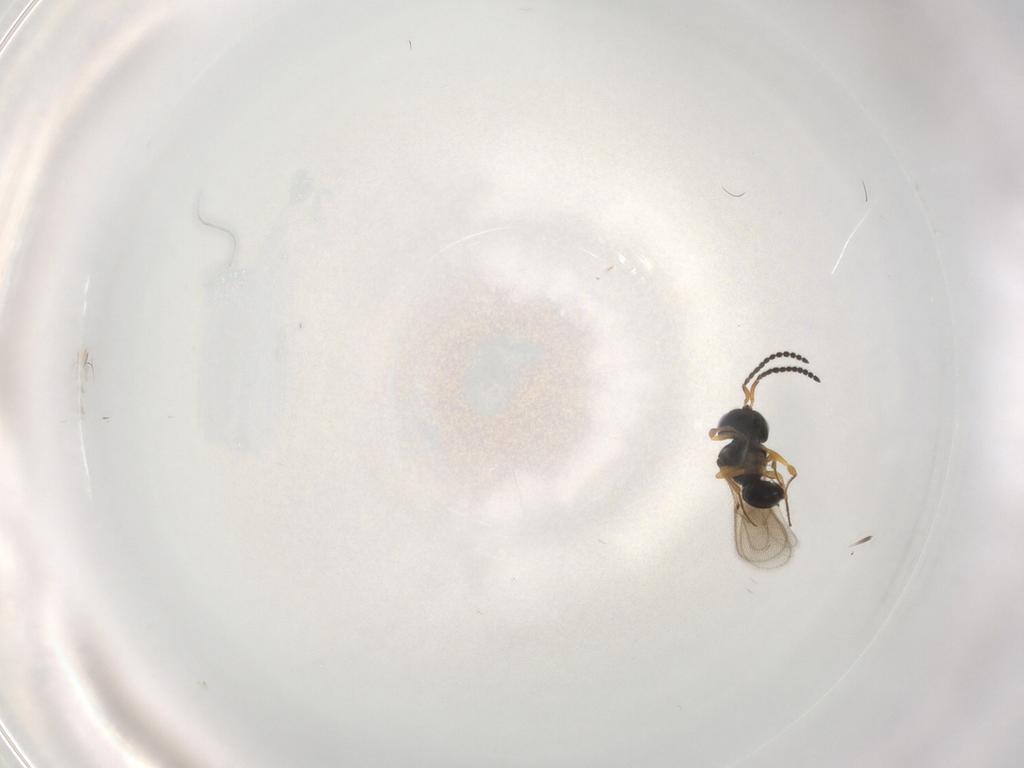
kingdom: Animalia
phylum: Arthropoda
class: Insecta
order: Hymenoptera
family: Scelionidae
